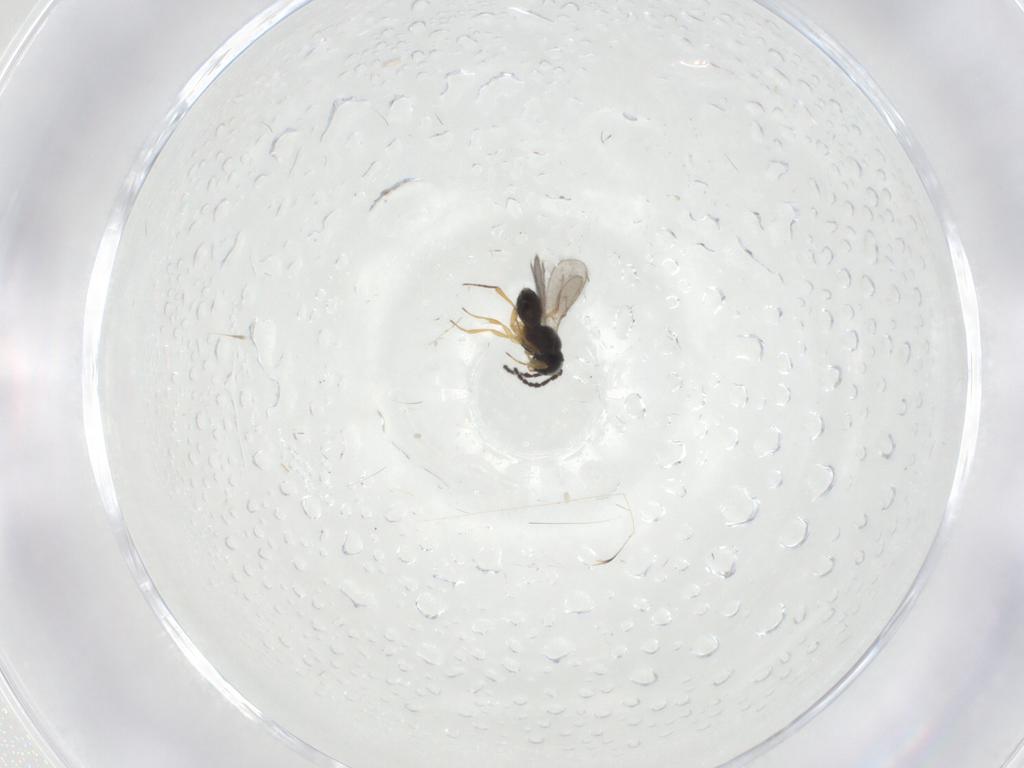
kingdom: Animalia
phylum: Arthropoda
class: Insecta
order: Hymenoptera
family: Scelionidae
